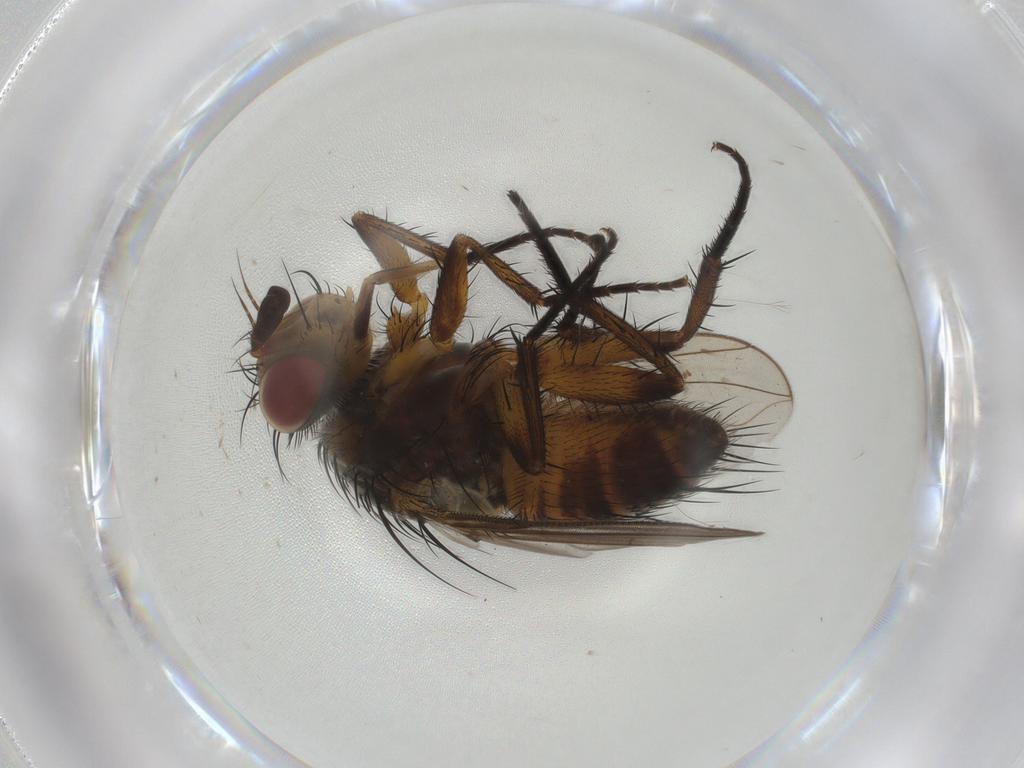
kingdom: Animalia
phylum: Arthropoda
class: Insecta
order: Diptera
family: Tachinidae
